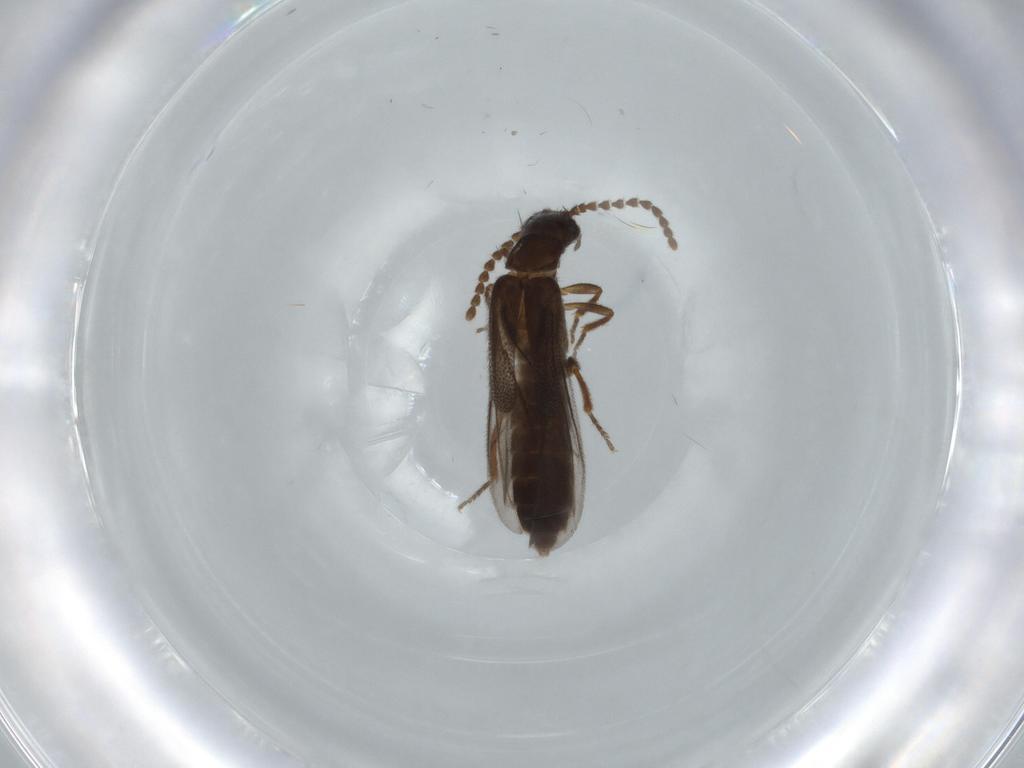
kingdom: Animalia
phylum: Arthropoda
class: Insecta
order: Coleoptera
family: Omethidae
